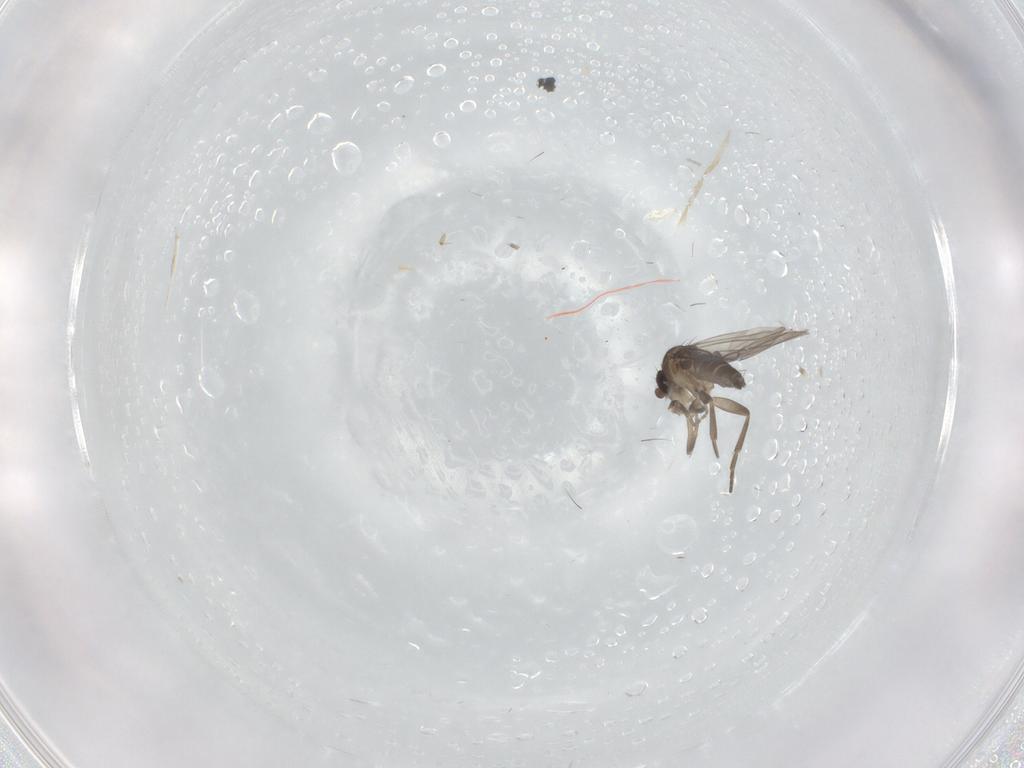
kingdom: Animalia
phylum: Arthropoda
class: Insecta
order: Diptera
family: Cecidomyiidae
